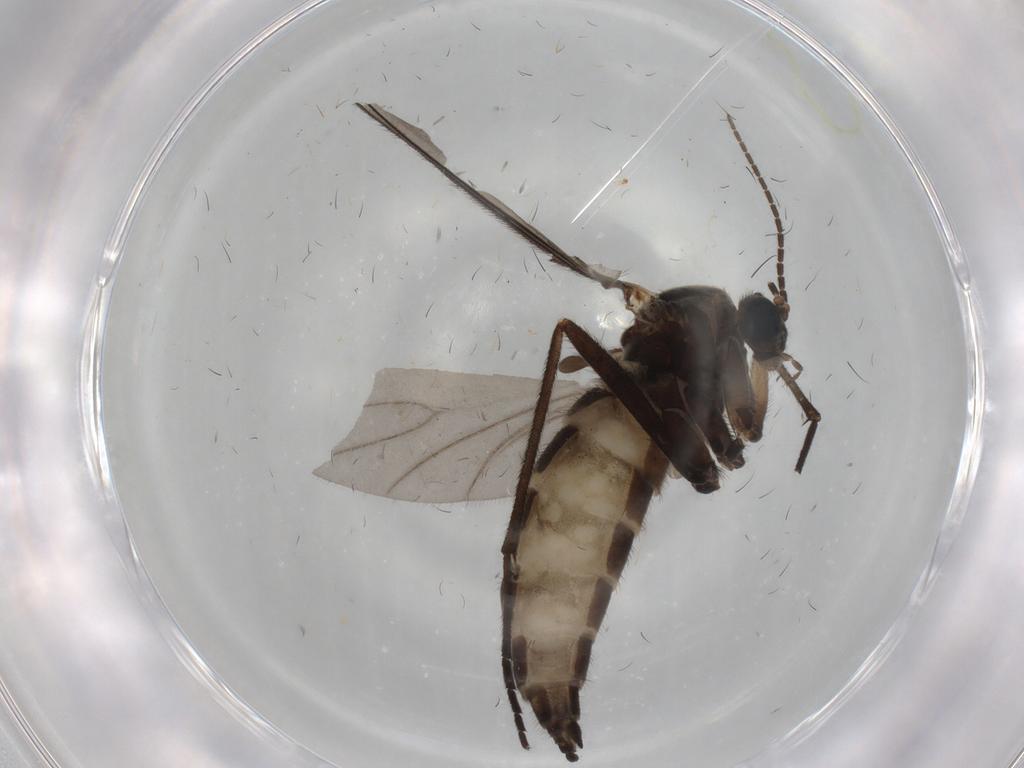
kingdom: Animalia
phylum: Arthropoda
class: Insecta
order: Diptera
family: Sciaridae
